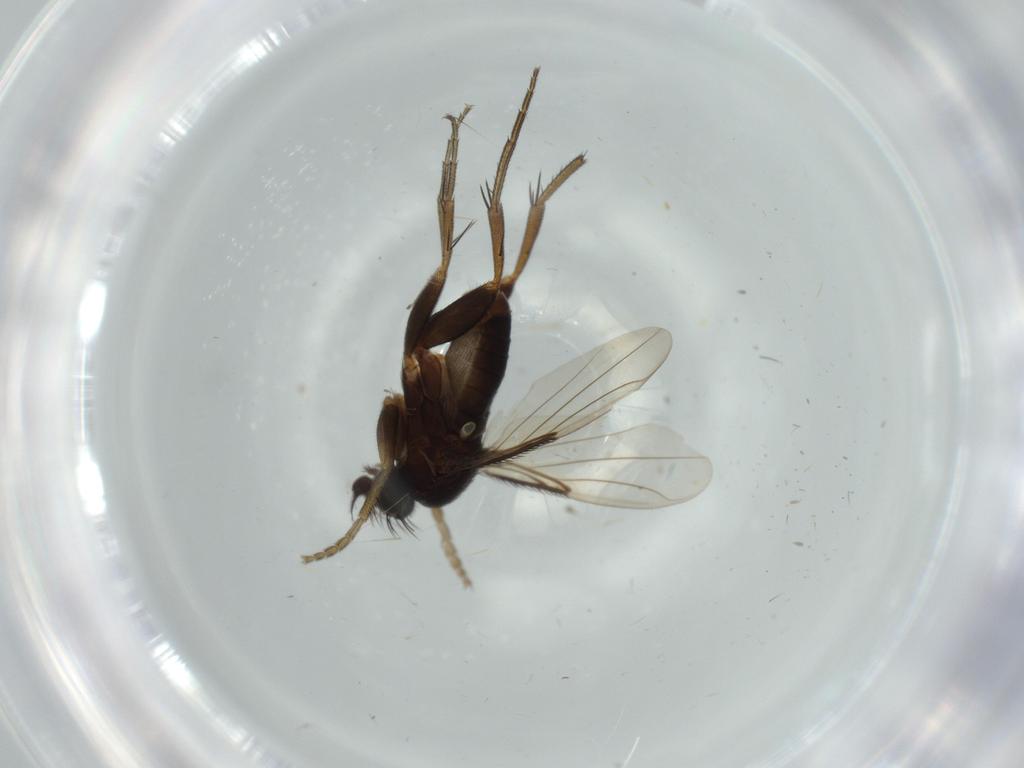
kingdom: Animalia
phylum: Arthropoda
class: Insecta
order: Diptera
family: Phoridae
